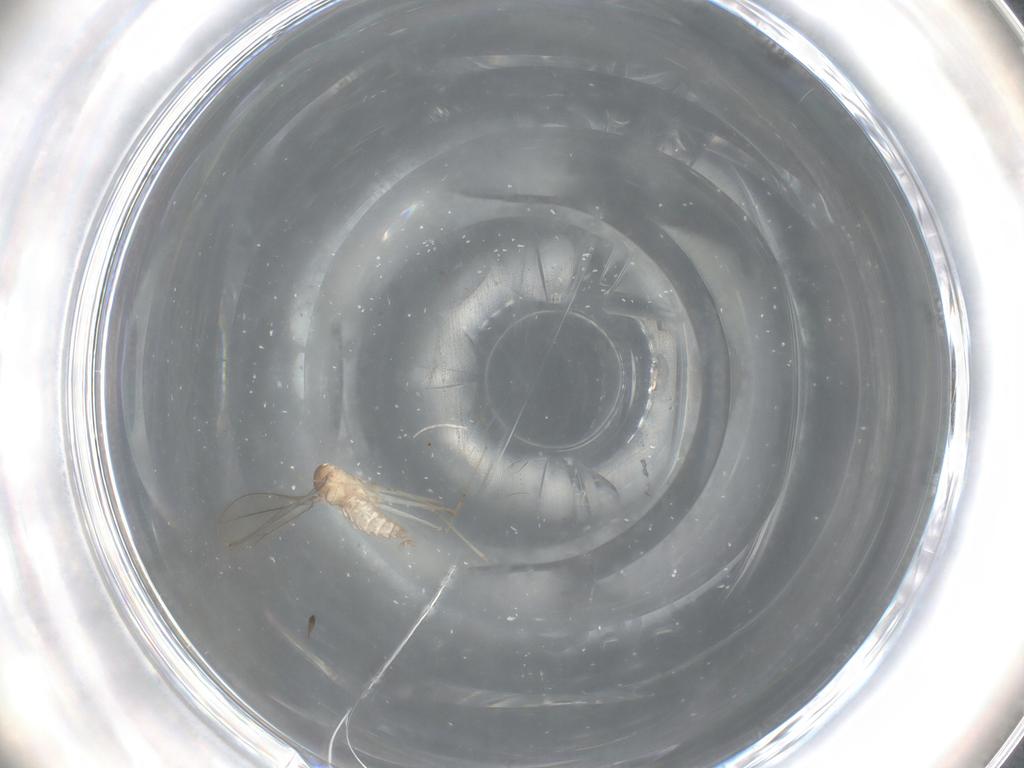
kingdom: Animalia
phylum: Arthropoda
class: Insecta
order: Diptera
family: Cecidomyiidae
